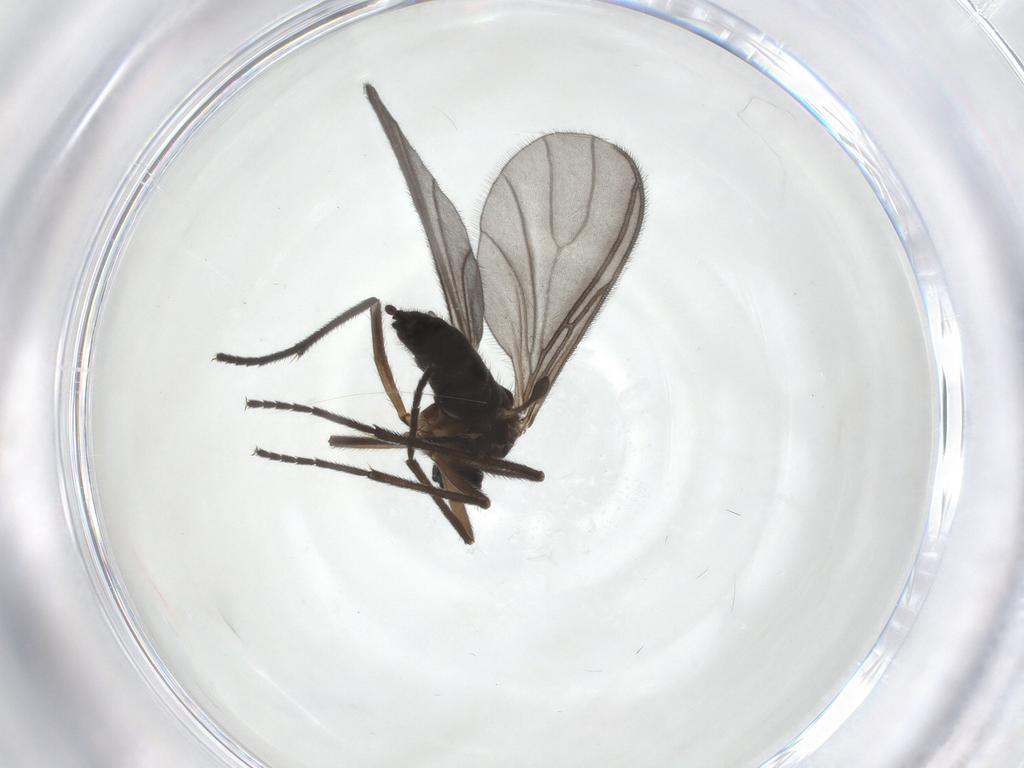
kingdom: Animalia
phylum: Arthropoda
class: Insecta
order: Diptera
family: Sciaridae
